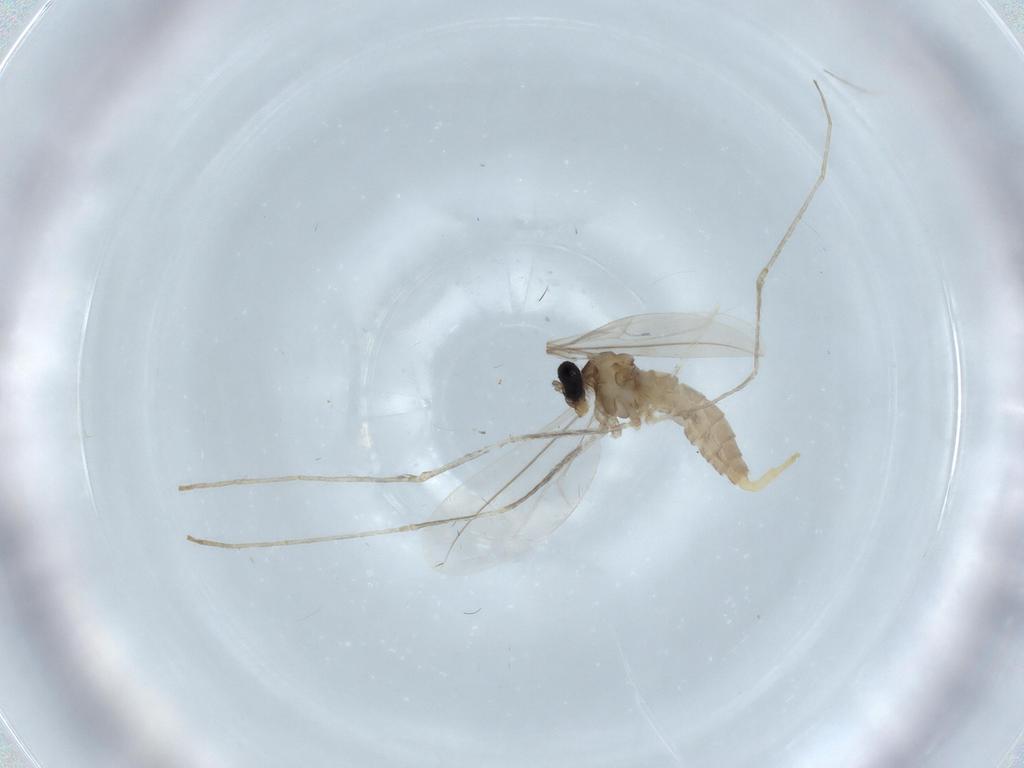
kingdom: Animalia
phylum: Arthropoda
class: Insecta
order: Diptera
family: Cecidomyiidae
